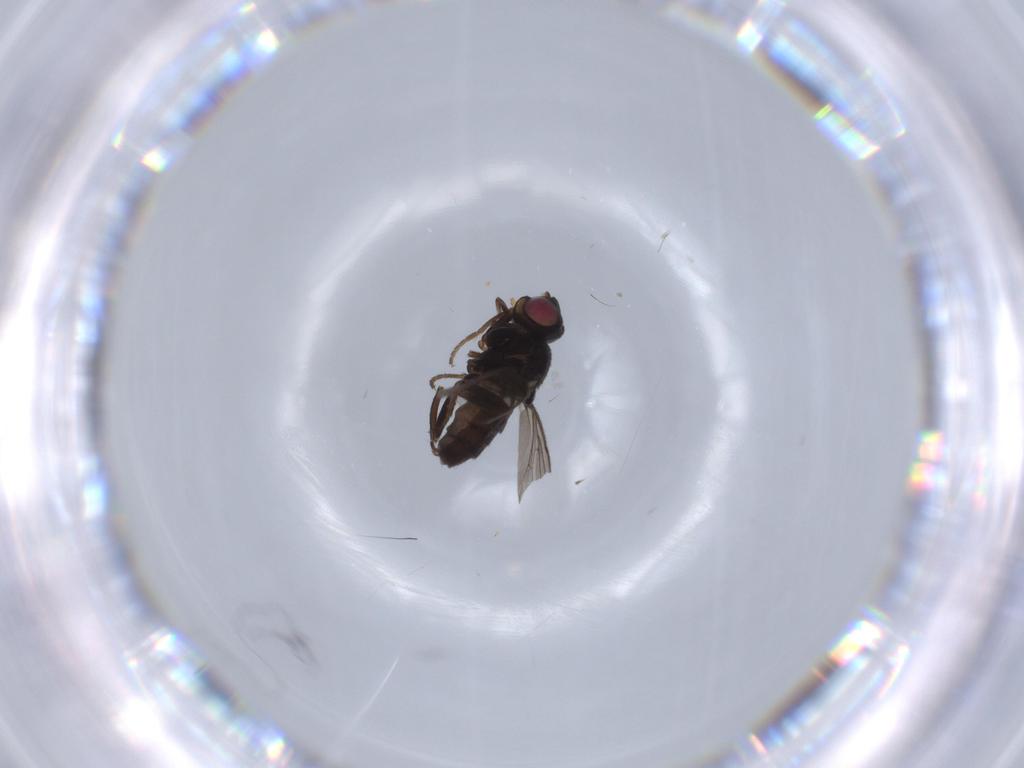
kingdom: Animalia
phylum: Arthropoda
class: Insecta
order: Diptera
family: Chloropidae
